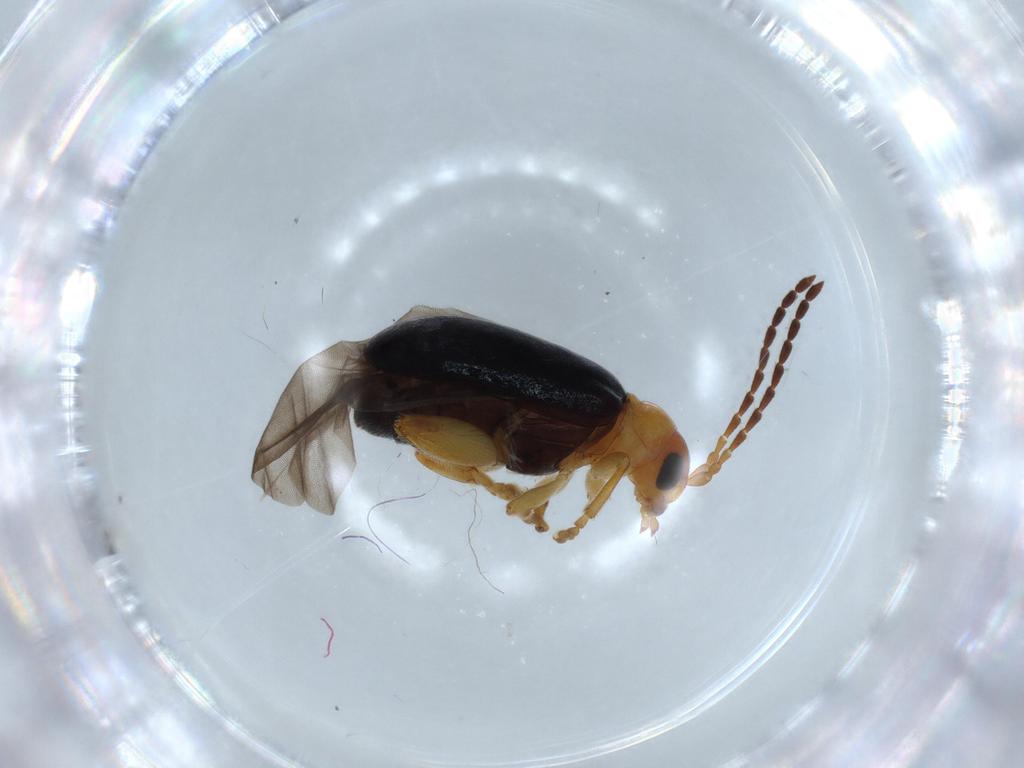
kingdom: Animalia
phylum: Arthropoda
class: Insecta
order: Coleoptera
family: Chrysomelidae
